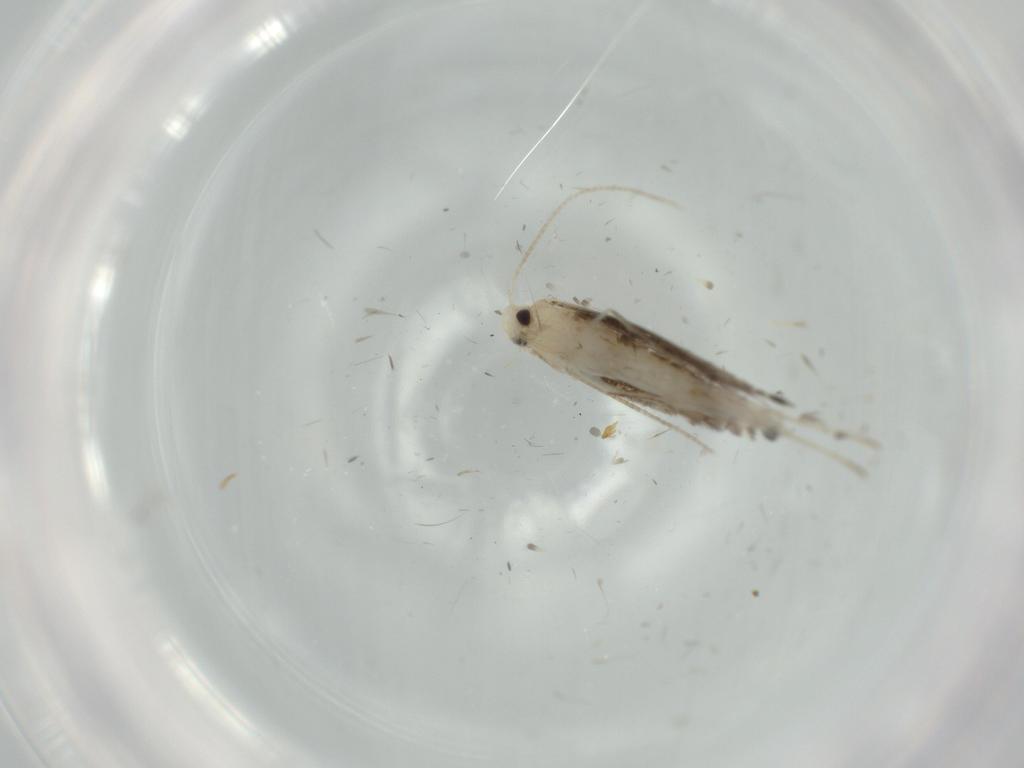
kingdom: Animalia
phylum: Arthropoda
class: Insecta
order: Lepidoptera
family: Gracillariidae
